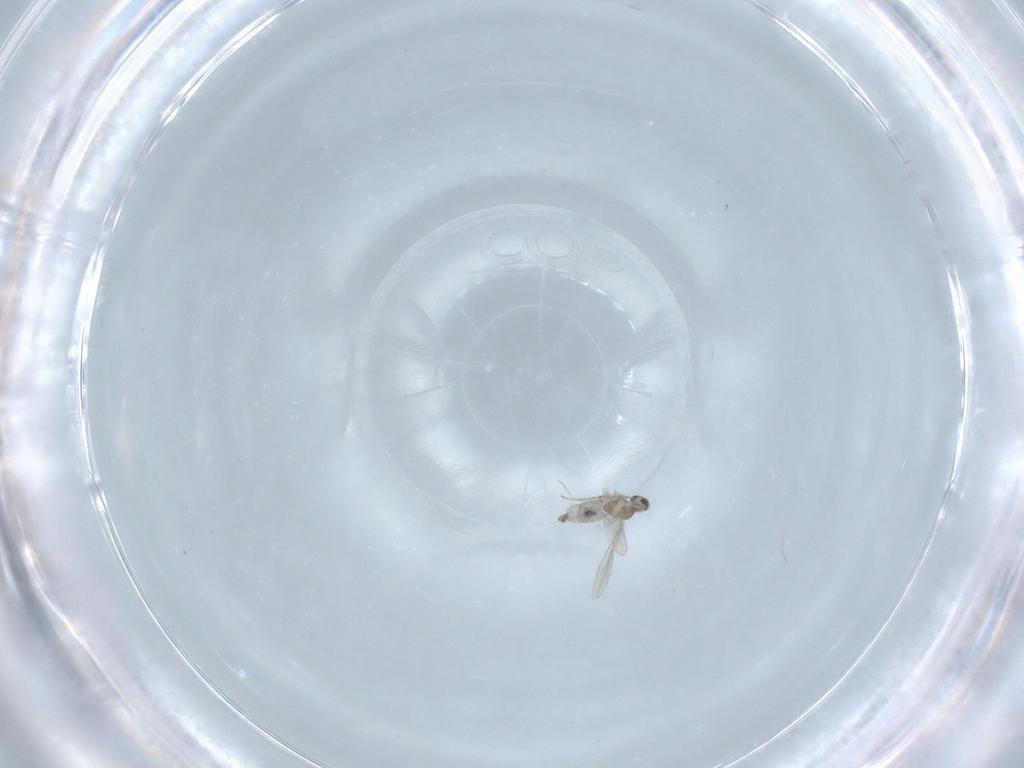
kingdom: Animalia
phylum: Arthropoda
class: Insecta
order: Diptera
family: Cecidomyiidae
